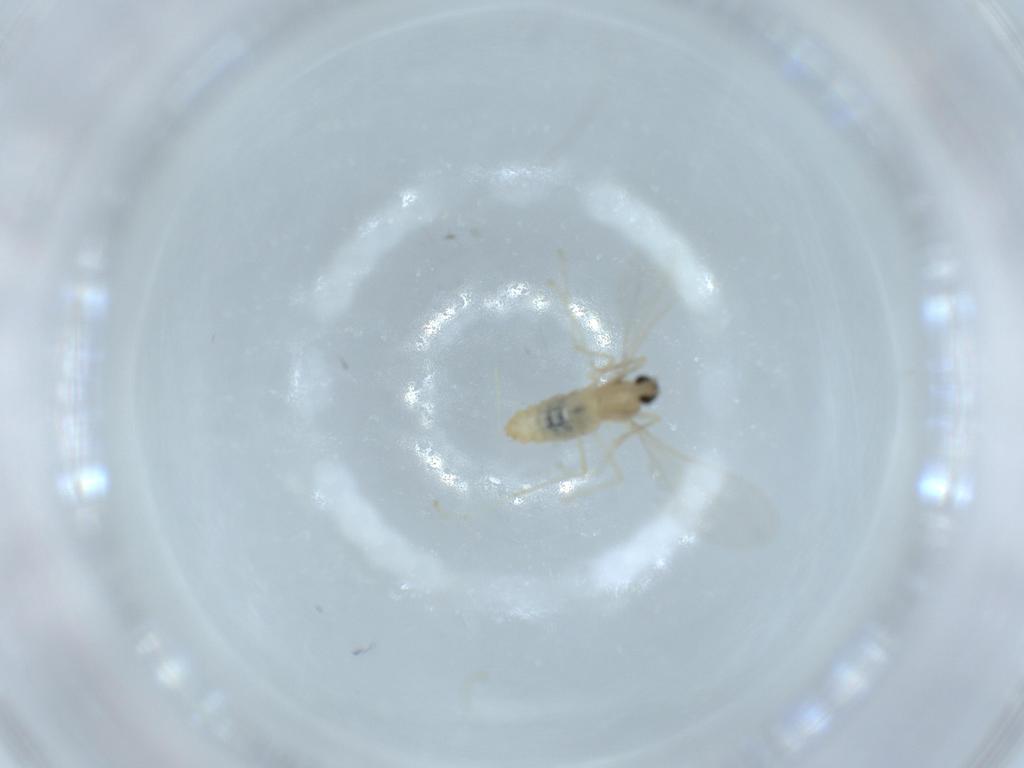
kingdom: Animalia
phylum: Arthropoda
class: Insecta
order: Diptera
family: Cecidomyiidae
